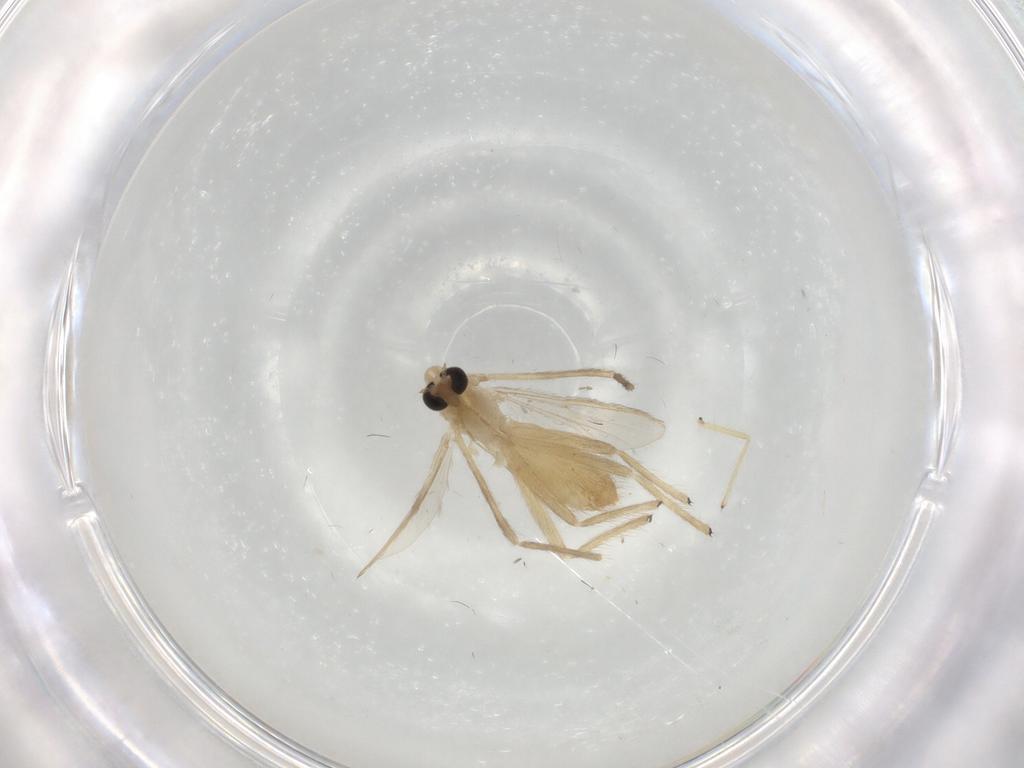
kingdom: Animalia
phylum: Arthropoda
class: Insecta
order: Diptera
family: Chironomidae
